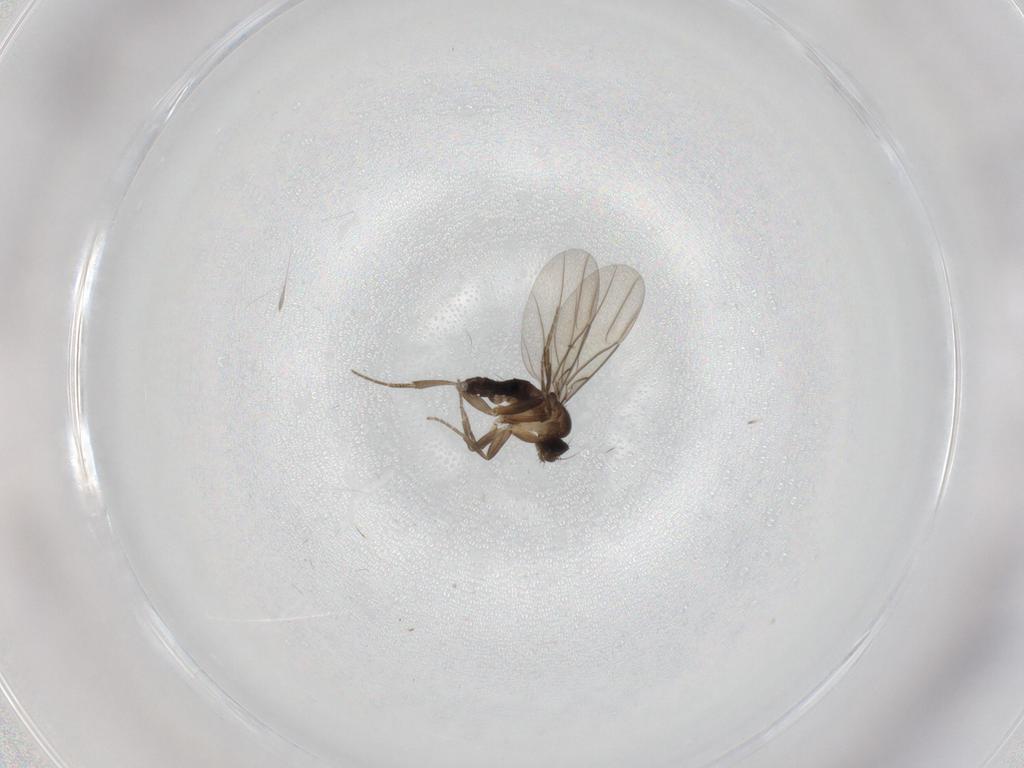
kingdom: Animalia
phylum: Arthropoda
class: Insecta
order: Diptera
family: Phoridae
